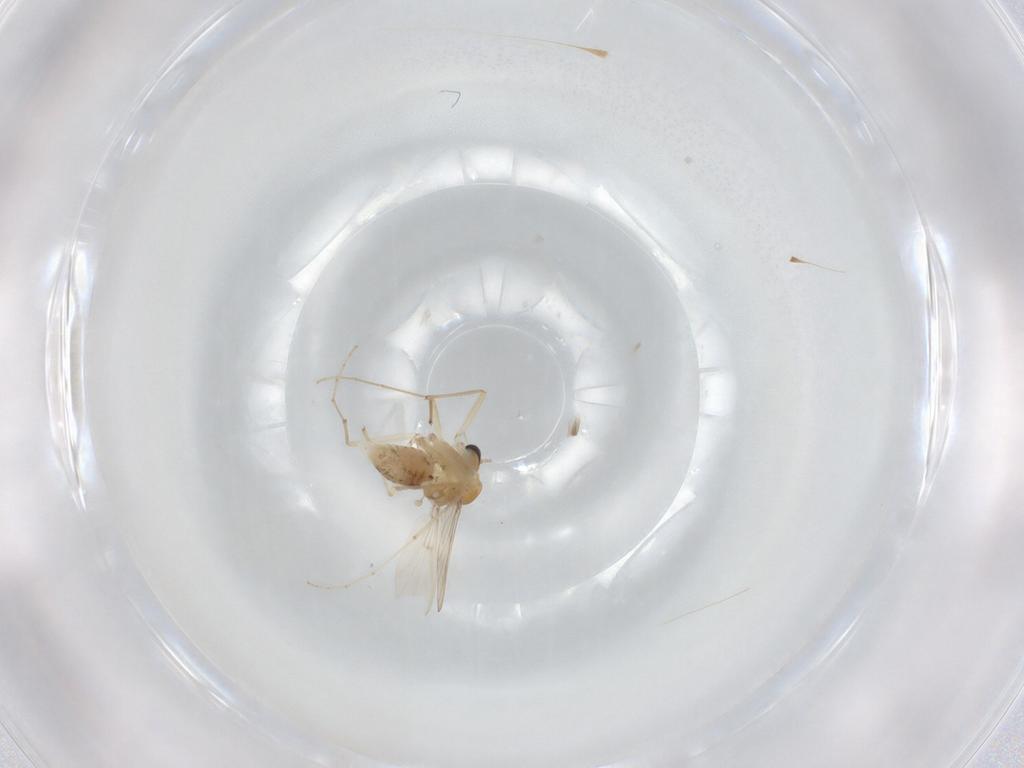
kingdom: Animalia
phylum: Arthropoda
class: Insecta
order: Diptera
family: Chironomidae
